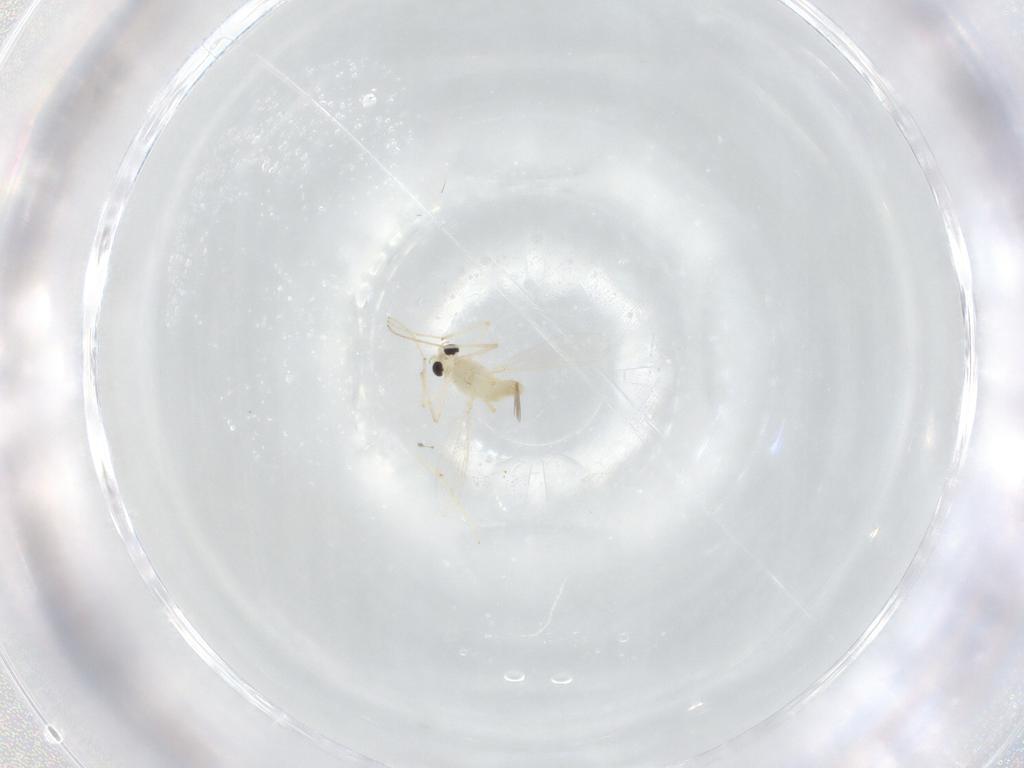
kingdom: Animalia
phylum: Arthropoda
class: Insecta
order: Diptera
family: Chironomidae
